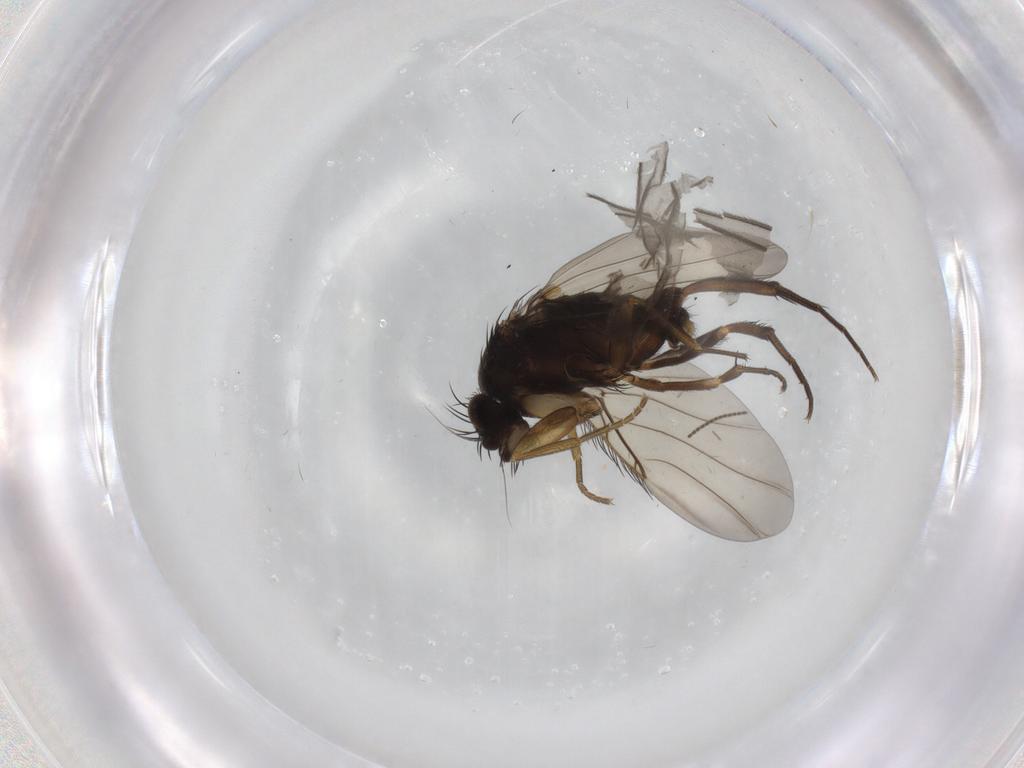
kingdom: Animalia
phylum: Arthropoda
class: Insecta
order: Diptera
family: Phoridae
